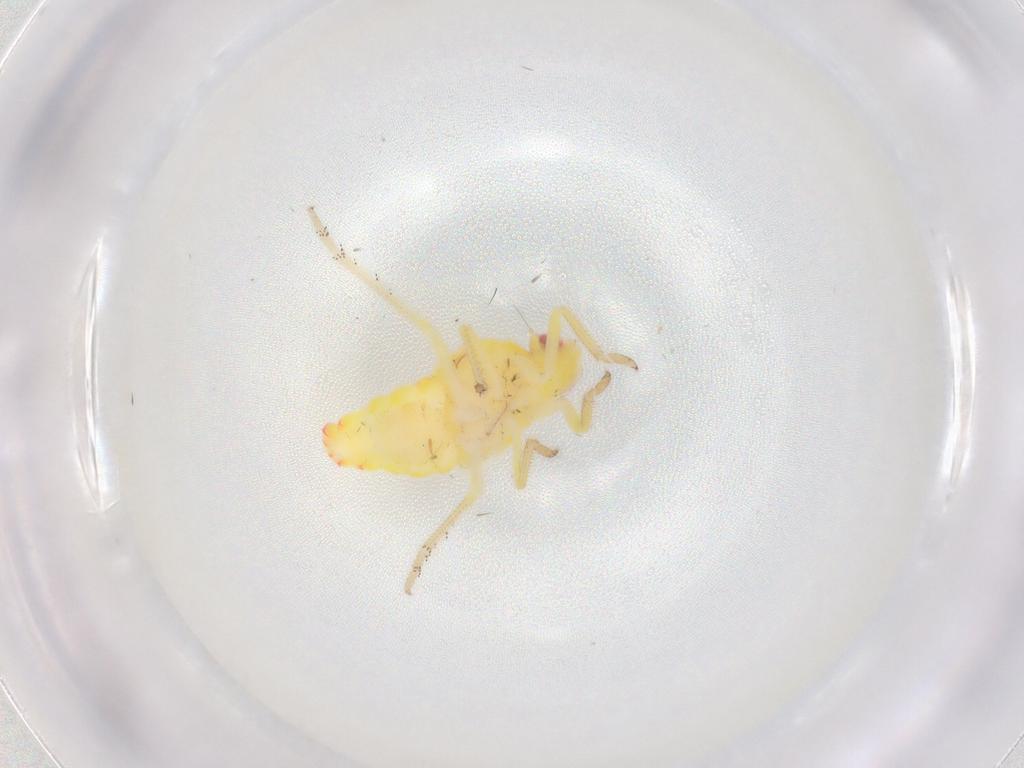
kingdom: Animalia
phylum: Arthropoda
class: Insecta
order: Hemiptera
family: Tropiduchidae
